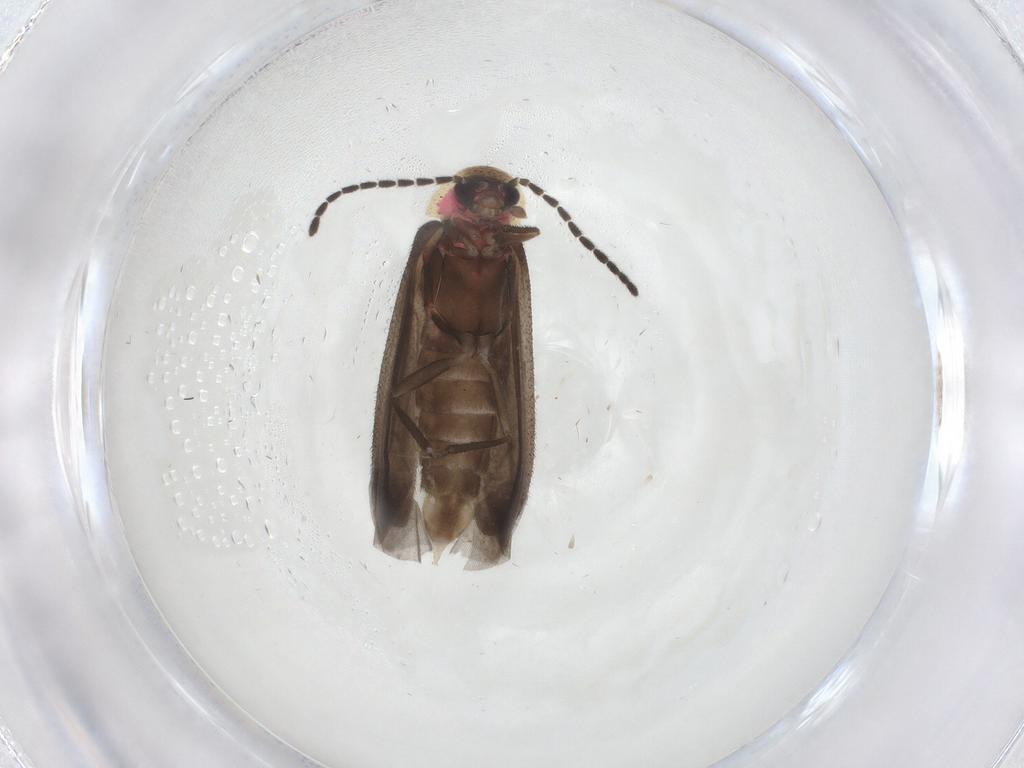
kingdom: Animalia
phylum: Arthropoda
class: Insecta
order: Coleoptera
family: Lampyridae
